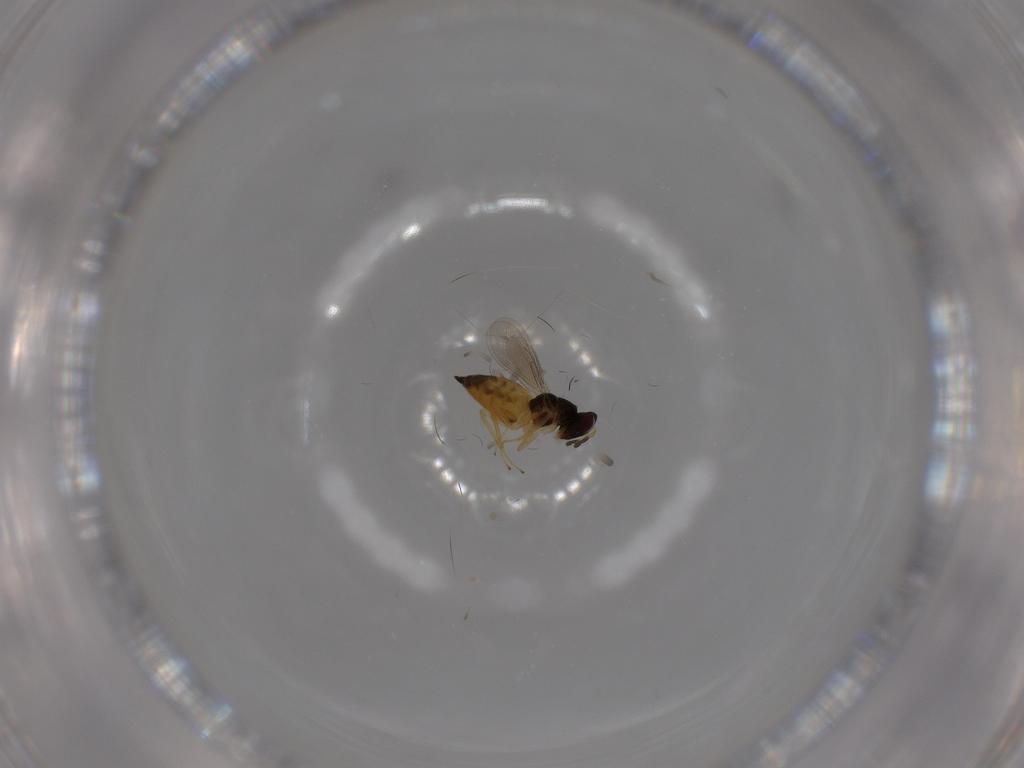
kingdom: Animalia
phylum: Arthropoda
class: Insecta
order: Hymenoptera
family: Eulophidae
